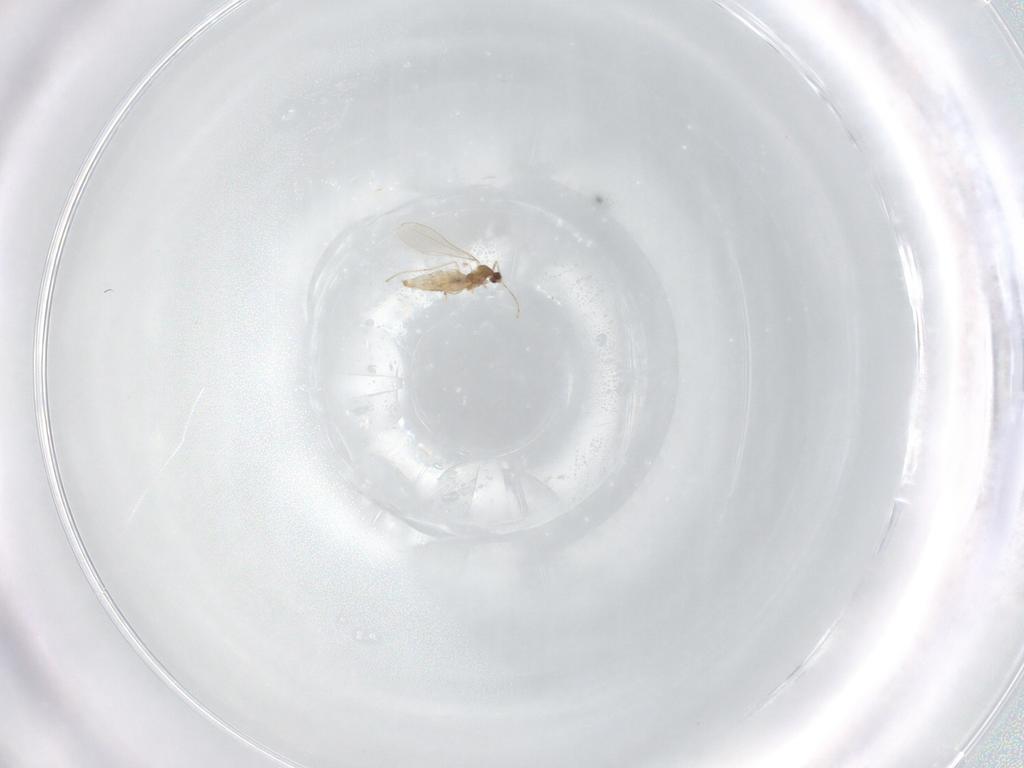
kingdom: Animalia
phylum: Arthropoda
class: Insecta
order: Diptera
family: Cecidomyiidae
